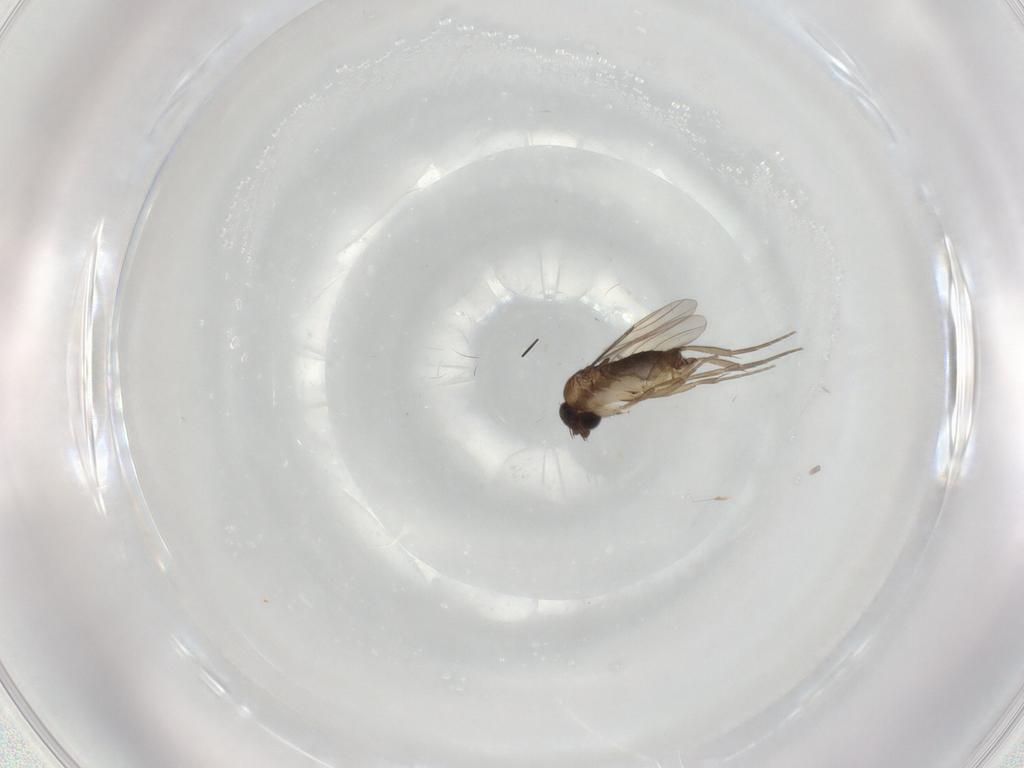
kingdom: Animalia
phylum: Arthropoda
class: Insecta
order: Diptera
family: Phoridae
